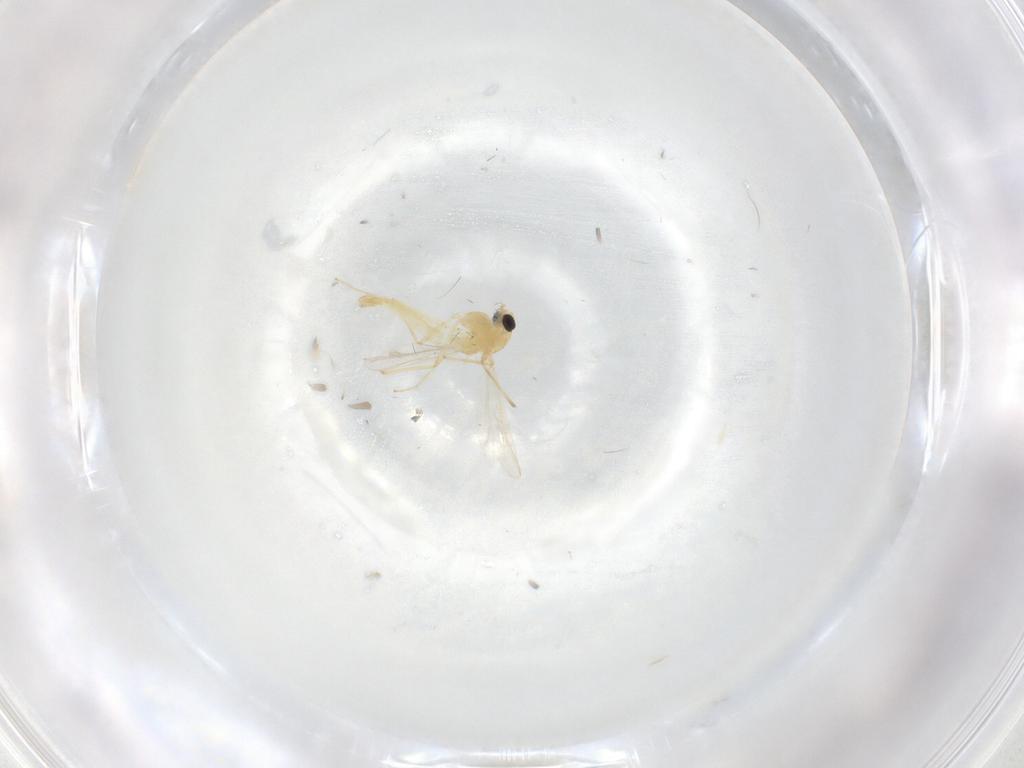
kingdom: Animalia
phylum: Arthropoda
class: Insecta
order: Diptera
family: Chironomidae
